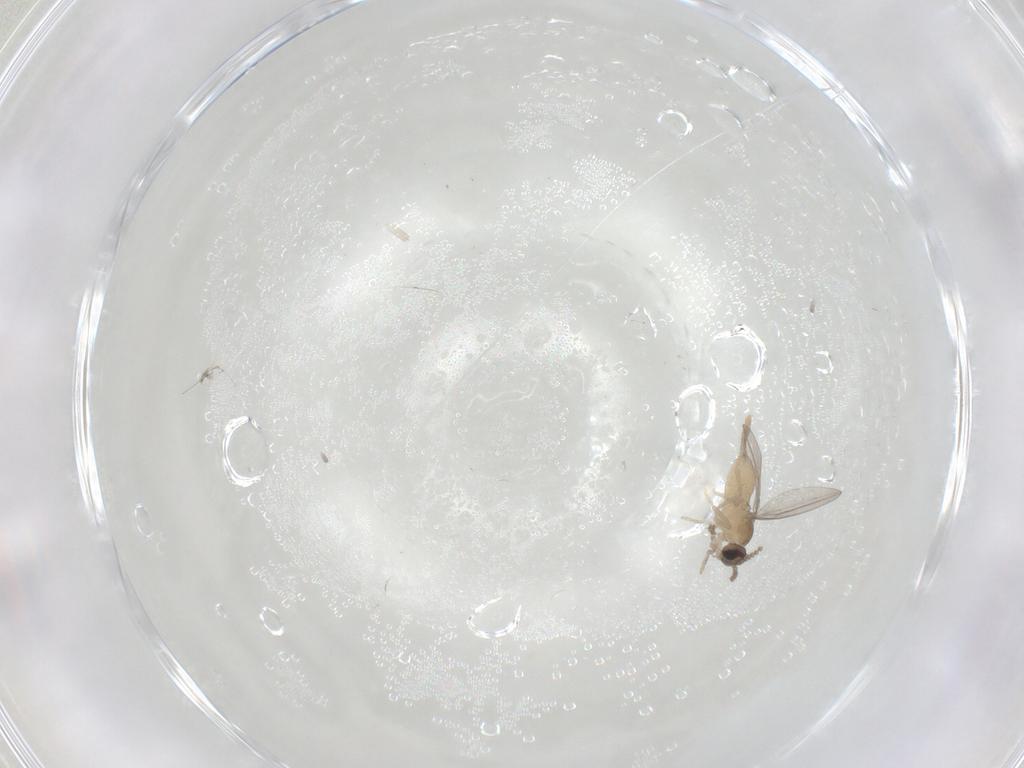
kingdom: Animalia
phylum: Arthropoda
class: Insecta
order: Diptera
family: Cecidomyiidae
